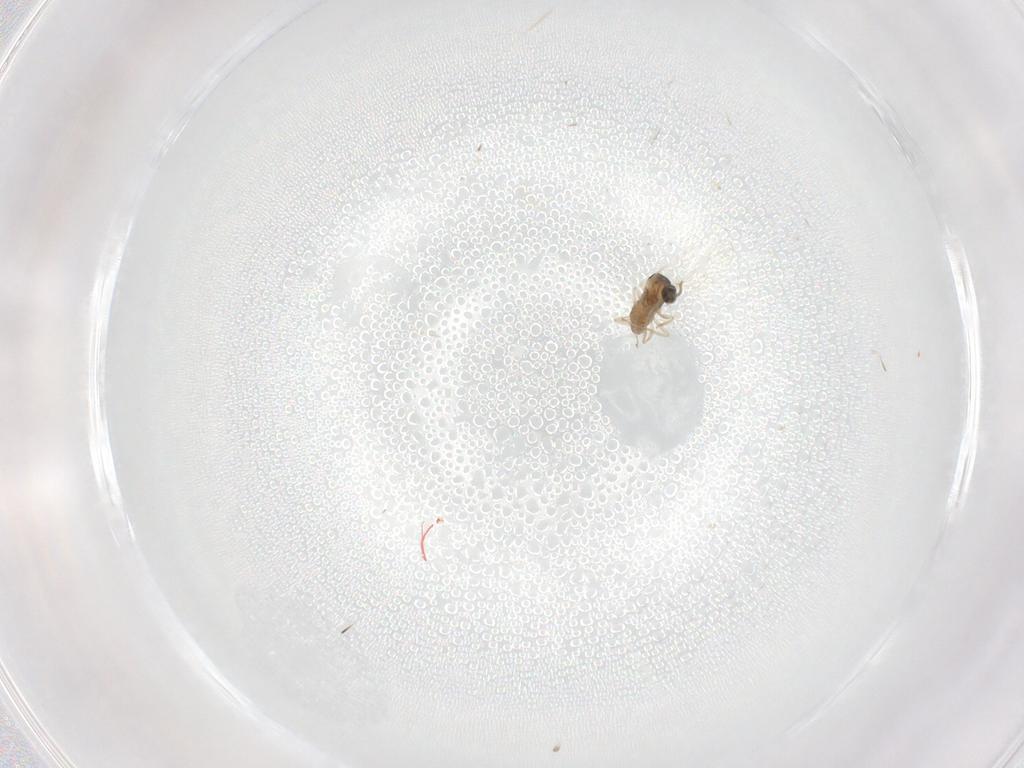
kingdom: Animalia
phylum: Arthropoda
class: Insecta
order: Diptera
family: Cecidomyiidae
